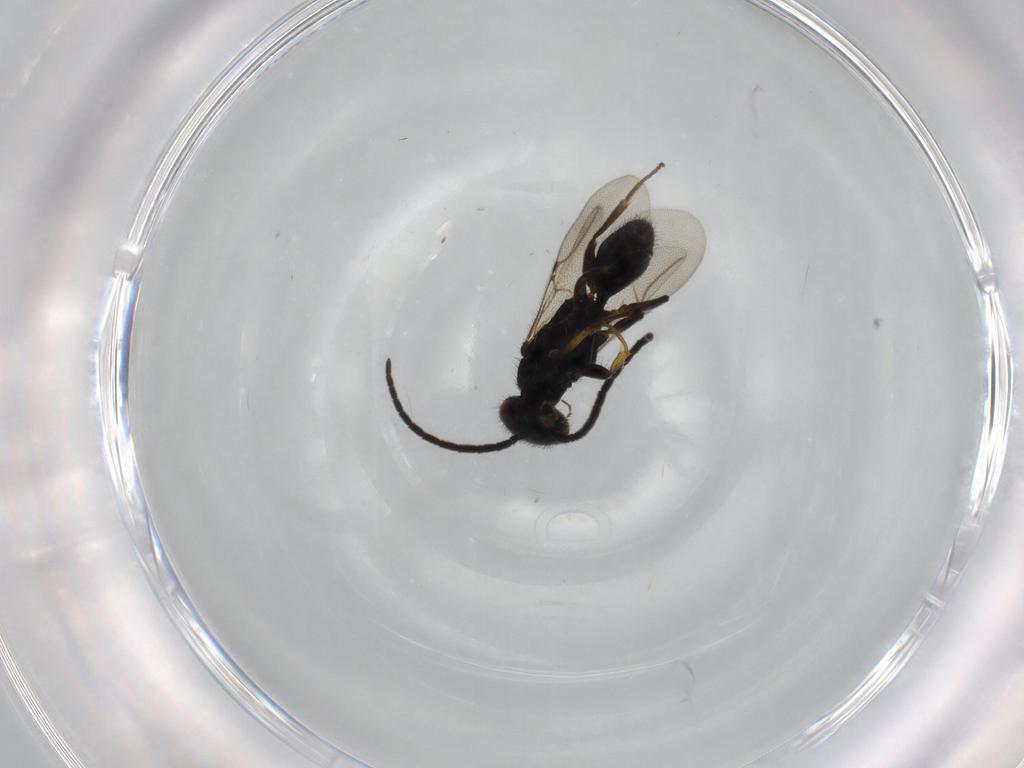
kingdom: Animalia
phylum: Arthropoda
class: Insecta
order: Hymenoptera
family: Bethylidae
